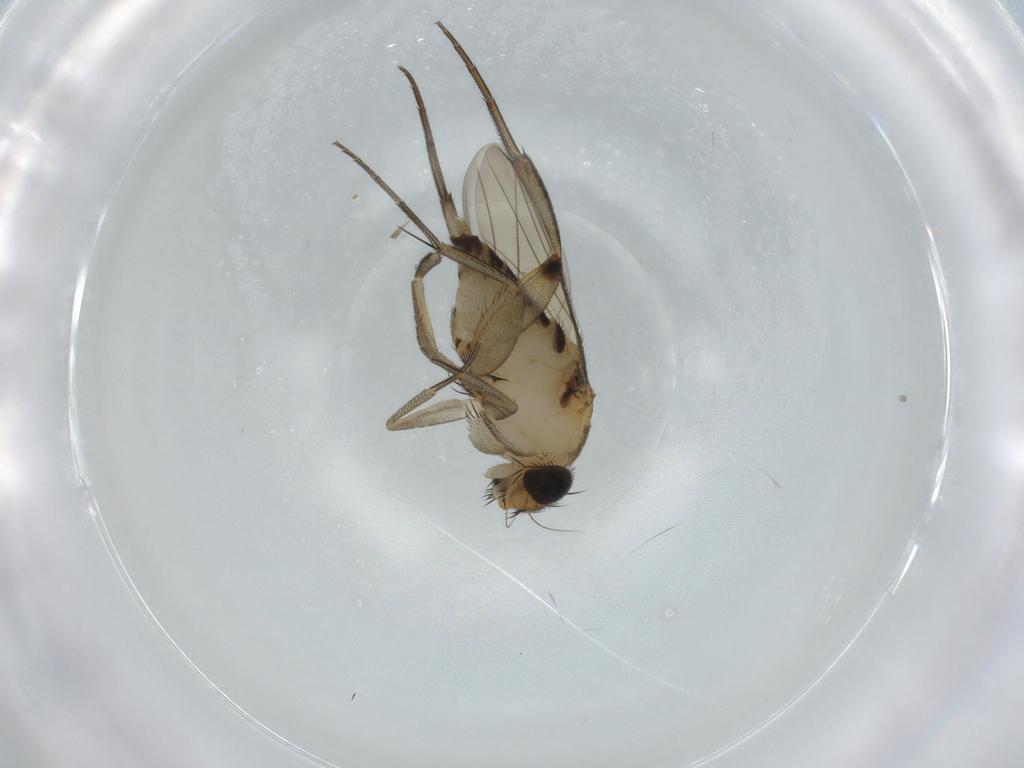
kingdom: Animalia
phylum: Arthropoda
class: Insecta
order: Diptera
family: Phoridae
